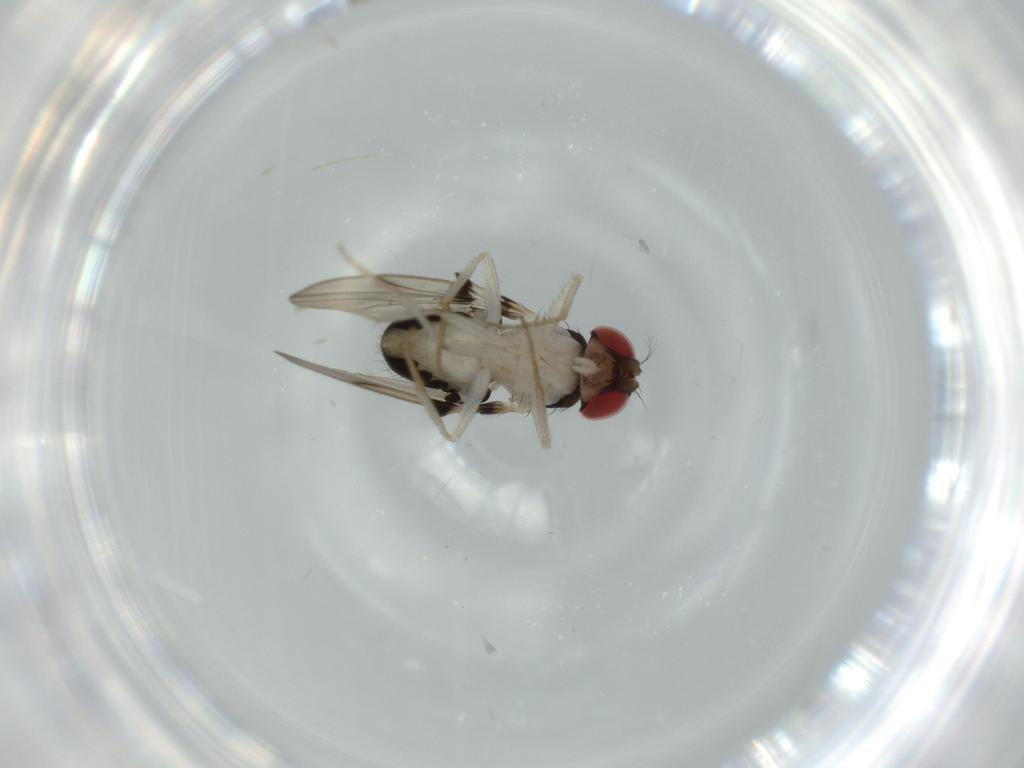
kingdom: Animalia
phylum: Arthropoda
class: Insecta
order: Diptera
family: Drosophilidae
